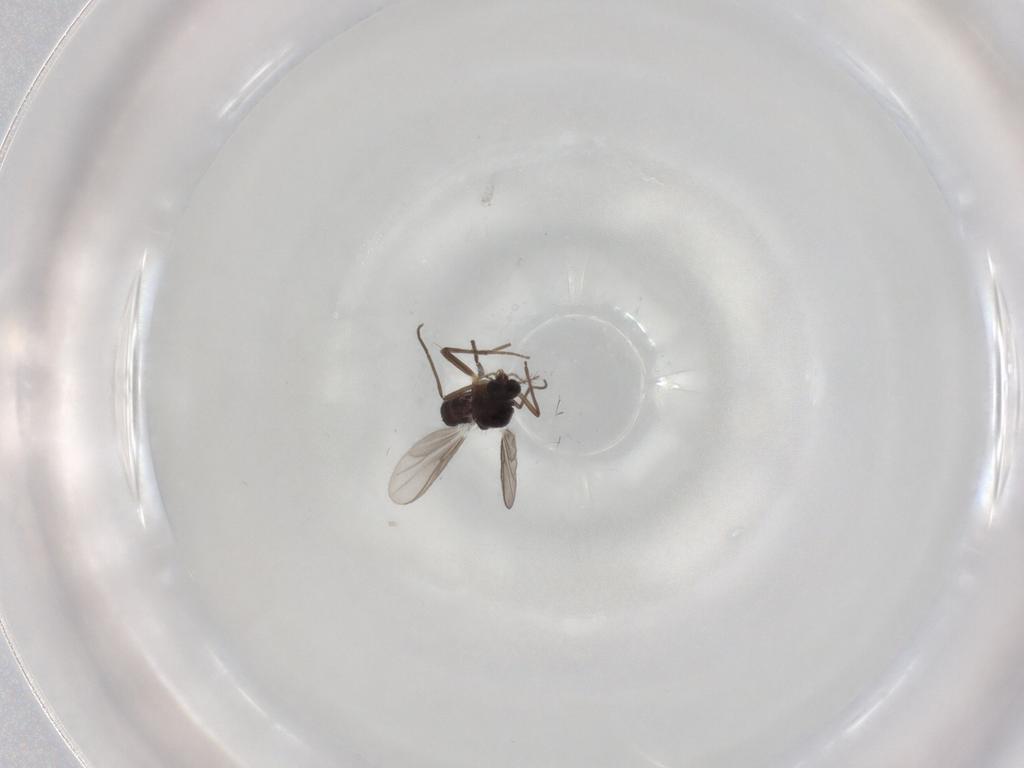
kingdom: Animalia
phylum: Arthropoda
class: Insecta
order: Diptera
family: Chironomidae
